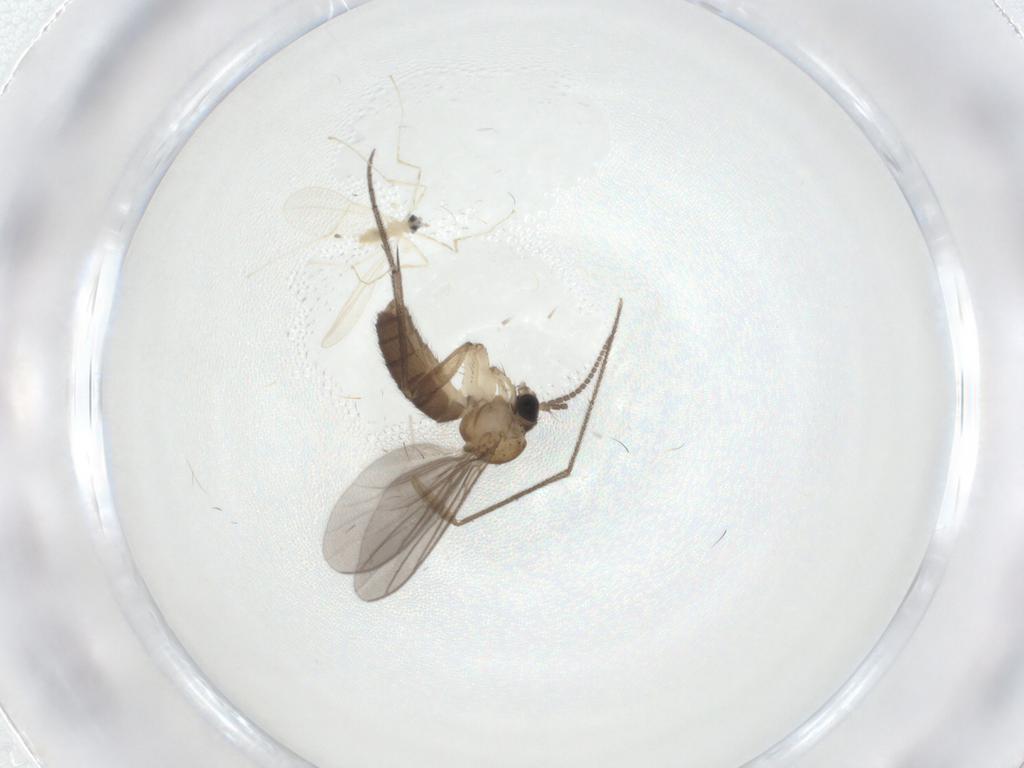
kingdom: Animalia
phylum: Arthropoda
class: Insecta
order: Diptera
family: Mycetophilidae
